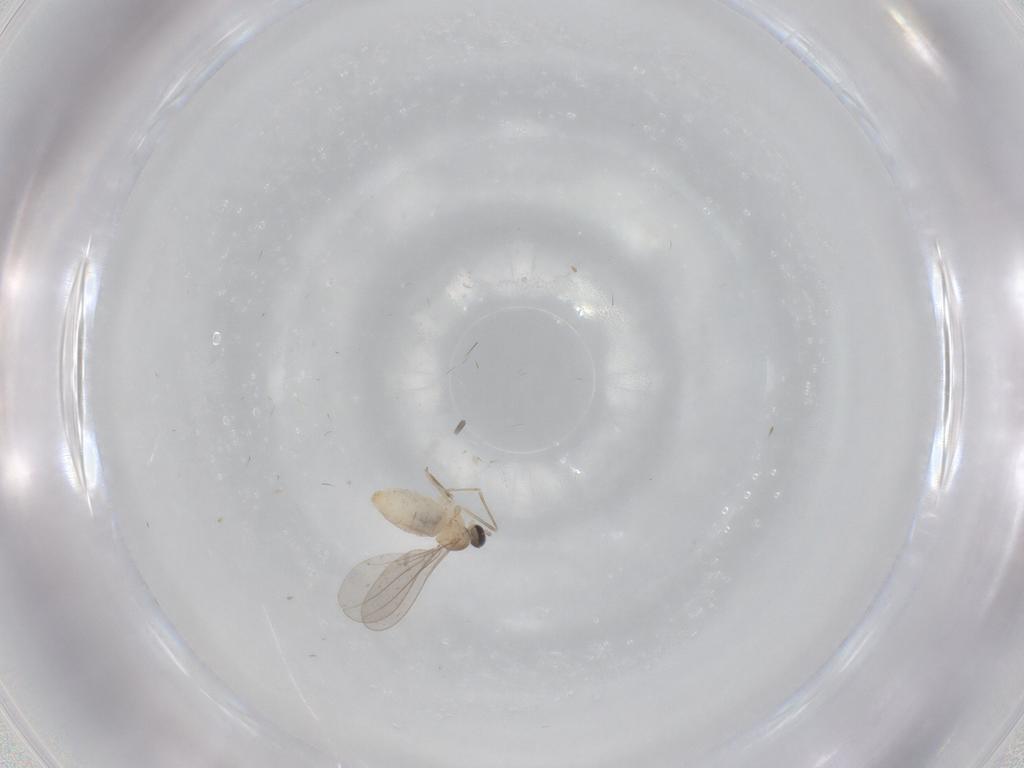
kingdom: Animalia
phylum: Arthropoda
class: Insecta
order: Diptera
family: Cecidomyiidae
